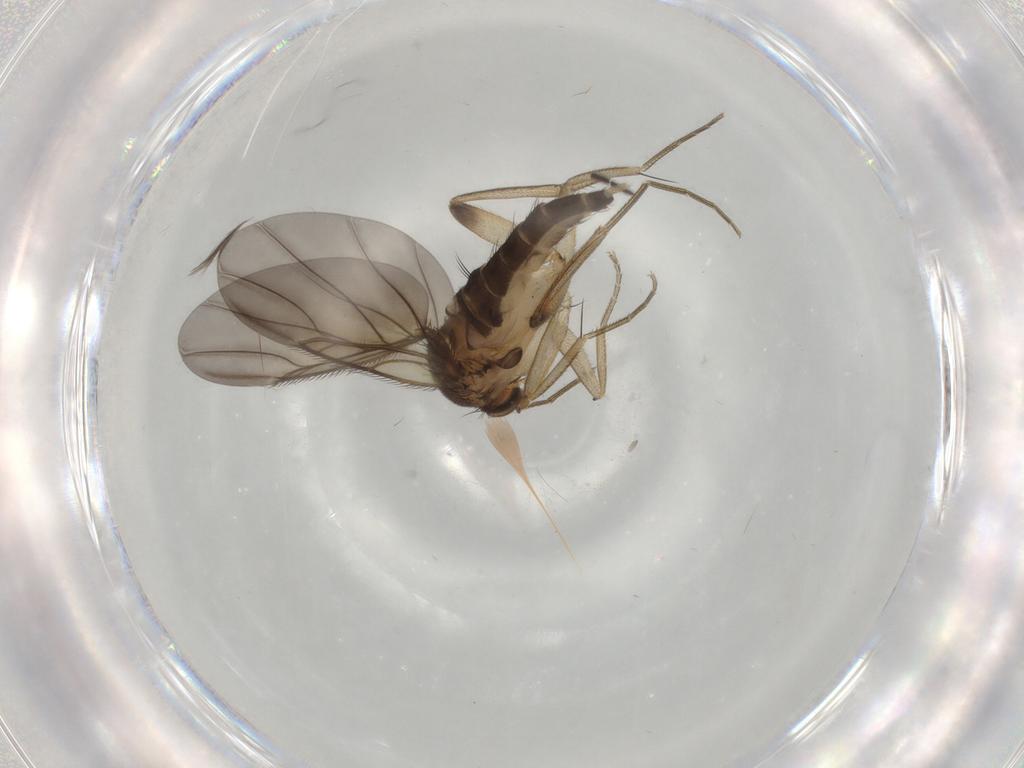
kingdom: Animalia
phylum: Arthropoda
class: Insecta
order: Diptera
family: Phoridae
